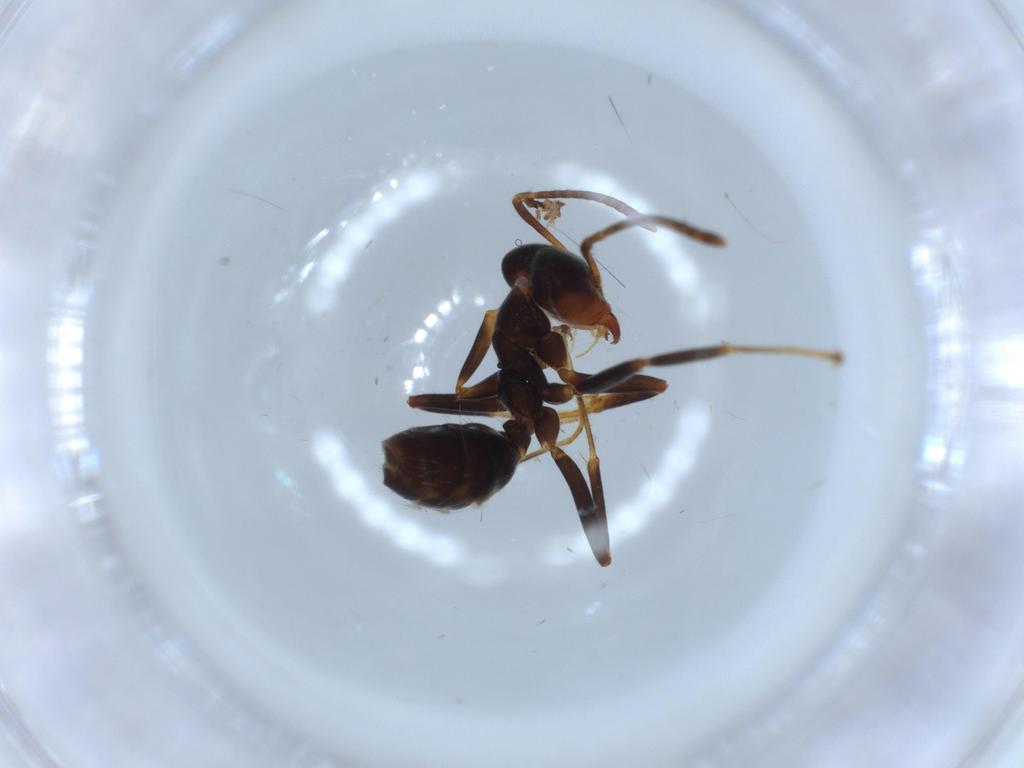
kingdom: Animalia
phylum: Arthropoda
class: Insecta
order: Hymenoptera
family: Formicidae
